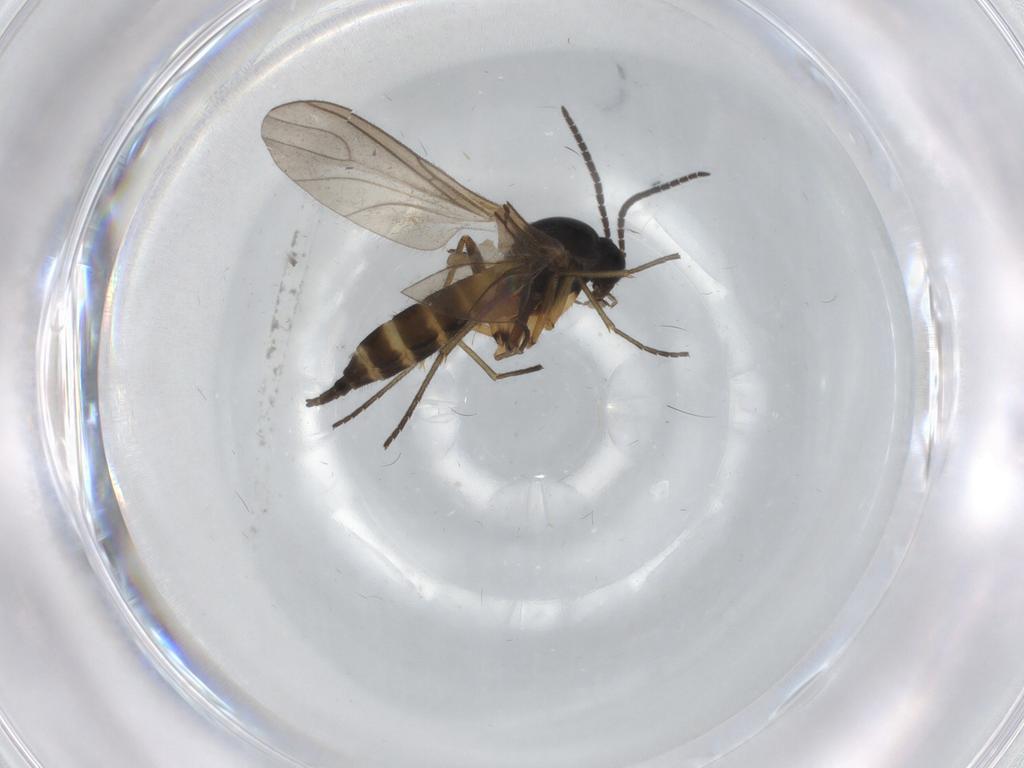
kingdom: Animalia
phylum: Arthropoda
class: Insecta
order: Diptera
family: Sciaridae
